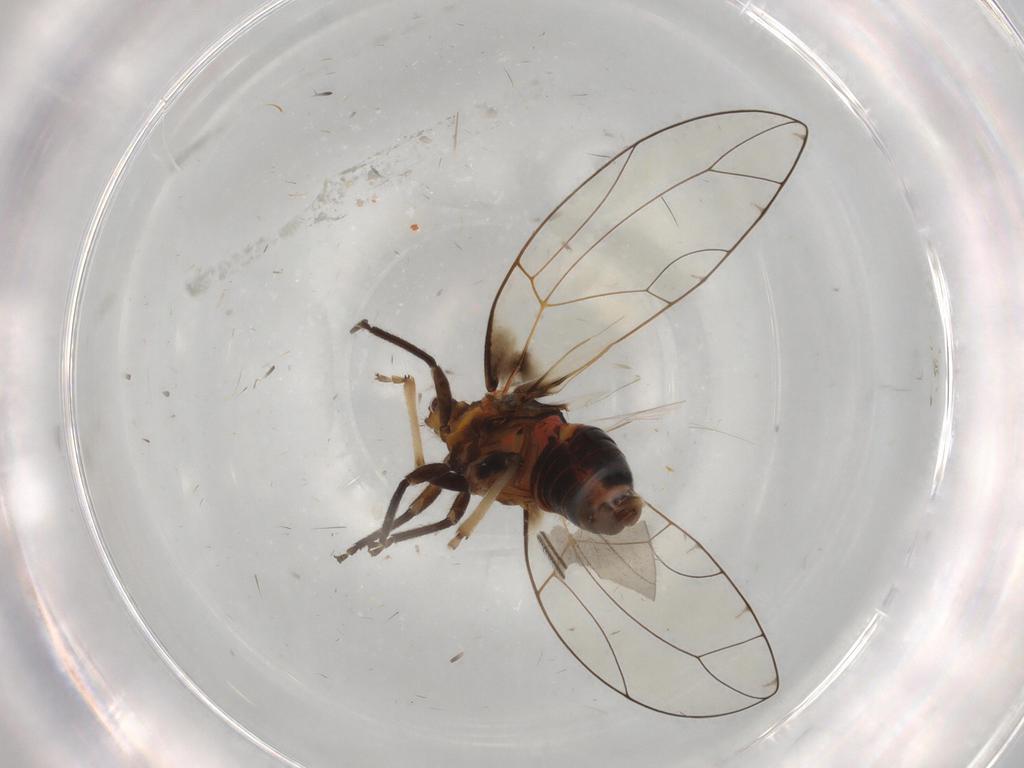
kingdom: Animalia
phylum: Arthropoda
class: Insecta
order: Hemiptera
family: Triozidae
